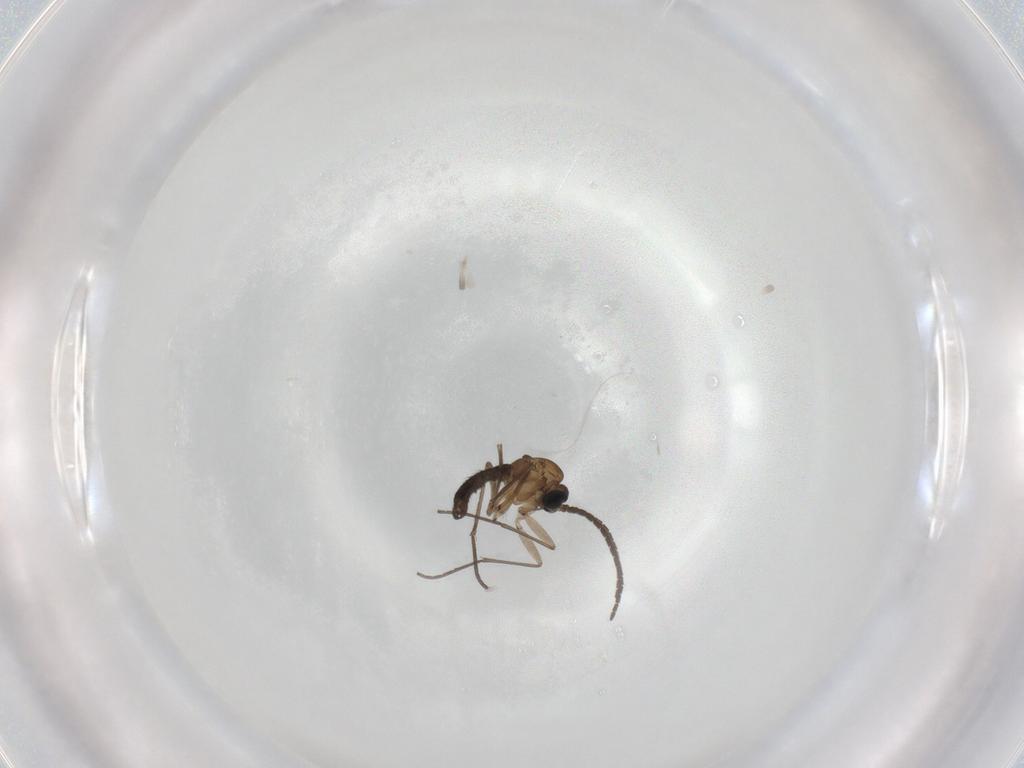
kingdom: Animalia
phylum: Arthropoda
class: Insecta
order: Diptera
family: Sciaridae
